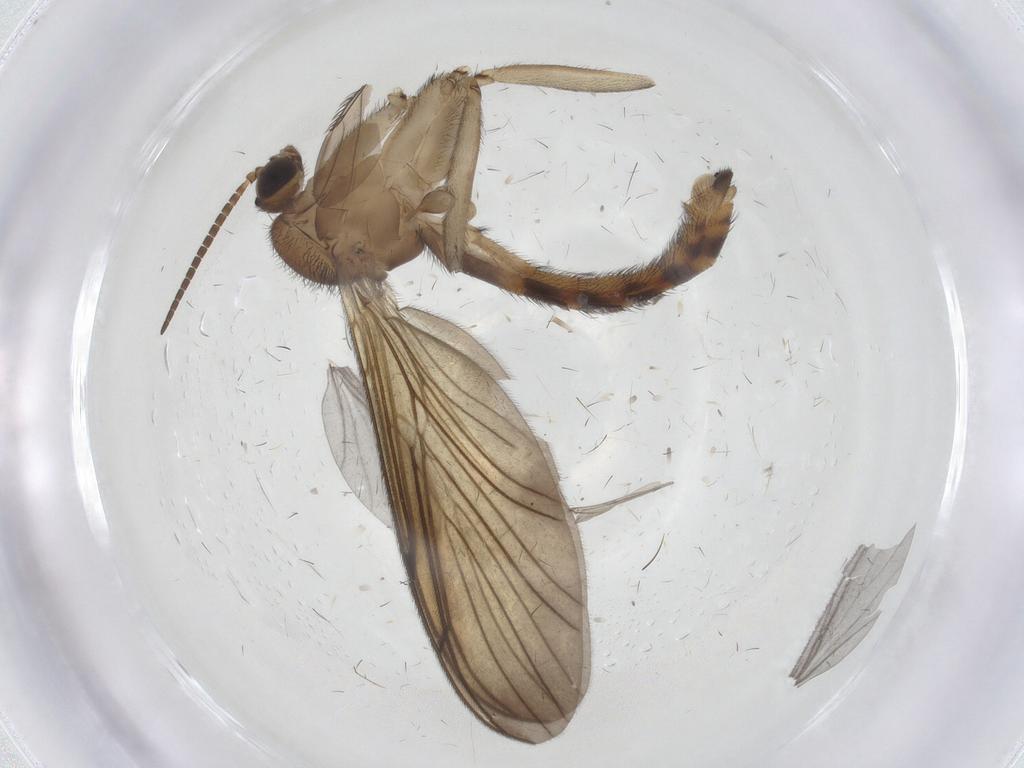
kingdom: Animalia
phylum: Arthropoda
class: Insecta
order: Diptera
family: Keroplatidae
